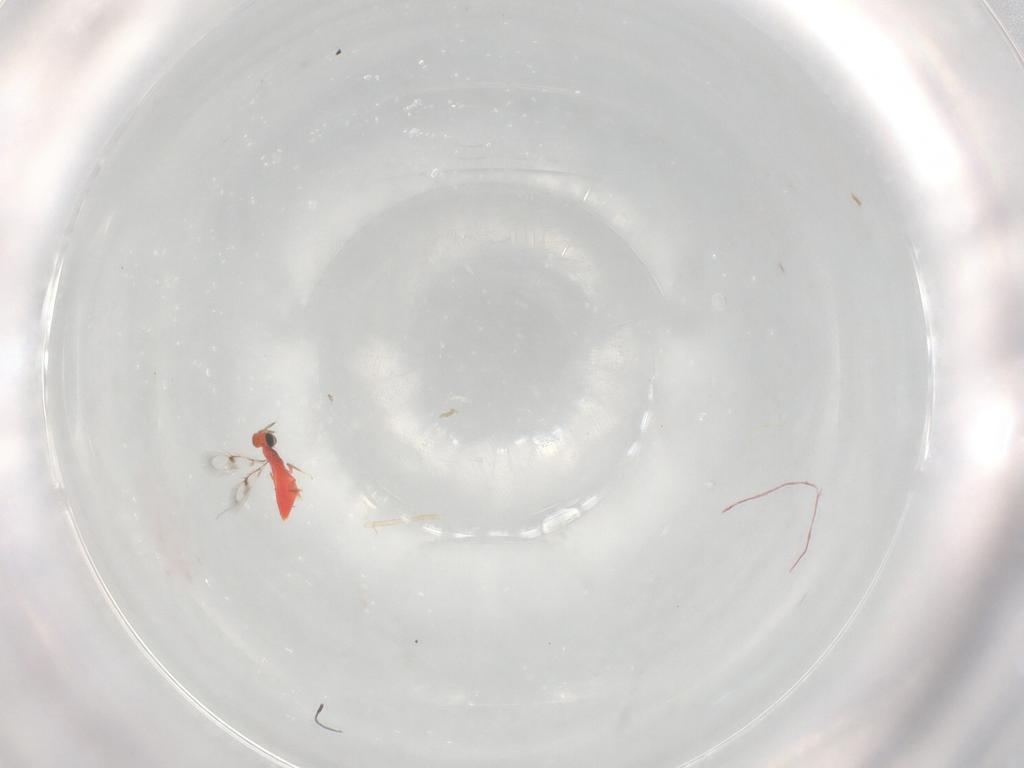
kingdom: Animalia
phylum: Arthropoda
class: Insecta
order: Hymenoptera
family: Trichogrammatidae
